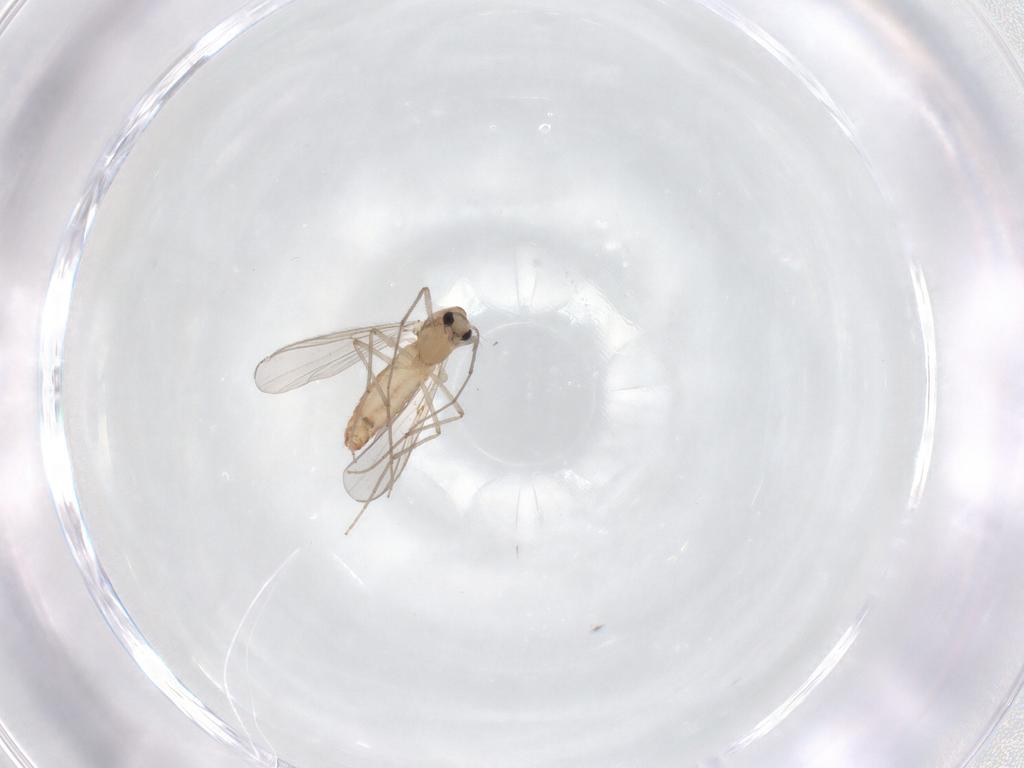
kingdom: Animalia
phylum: Arthropoda
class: Insecta
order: Diptera
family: Chironomidae
